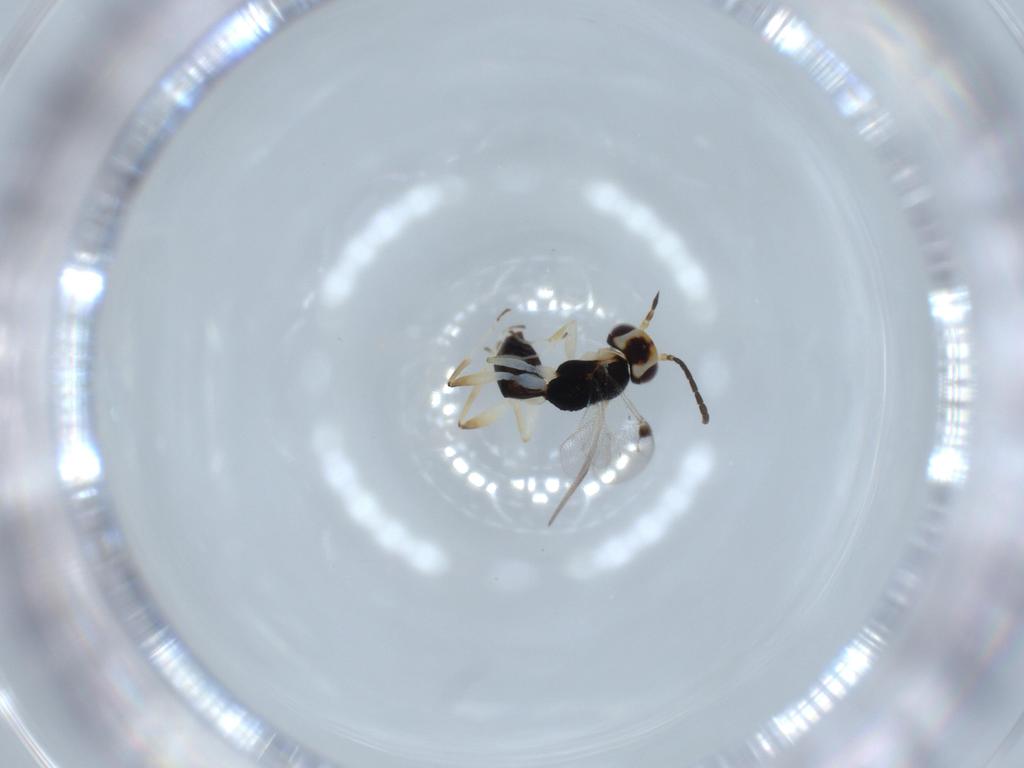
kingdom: Animalia
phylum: Arthropoda
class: Insecta
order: Hymenoptera
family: Dryinidae
